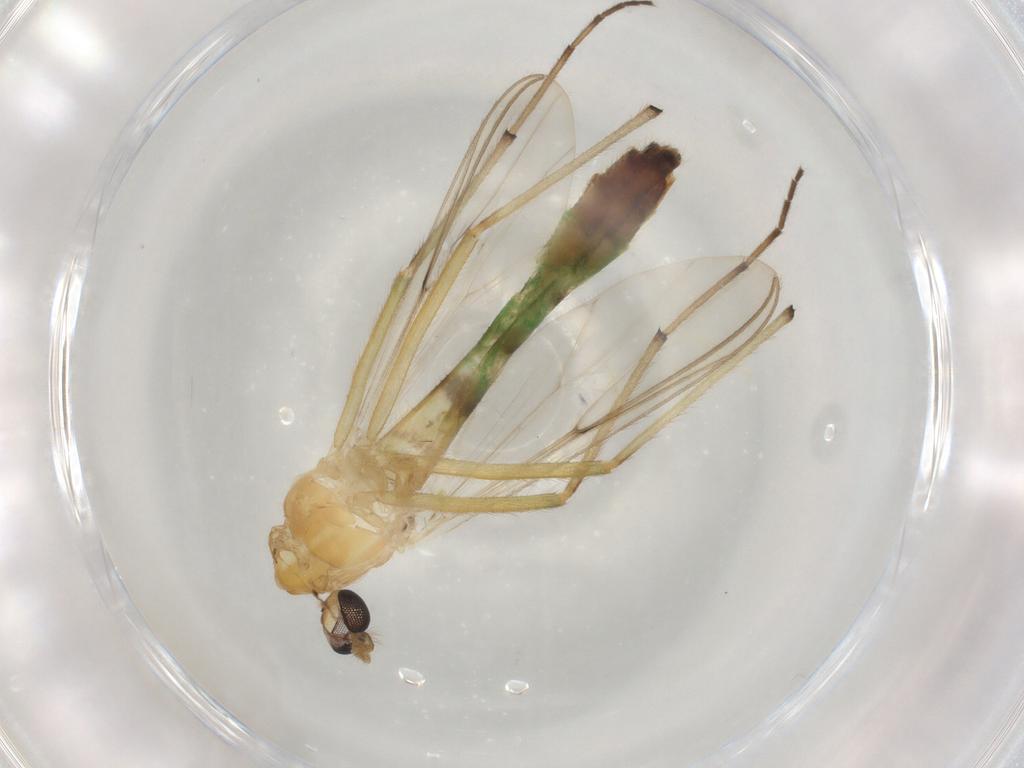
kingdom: Animalia
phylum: Arthropoda
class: Insecta
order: Diptera
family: Chironomidae
